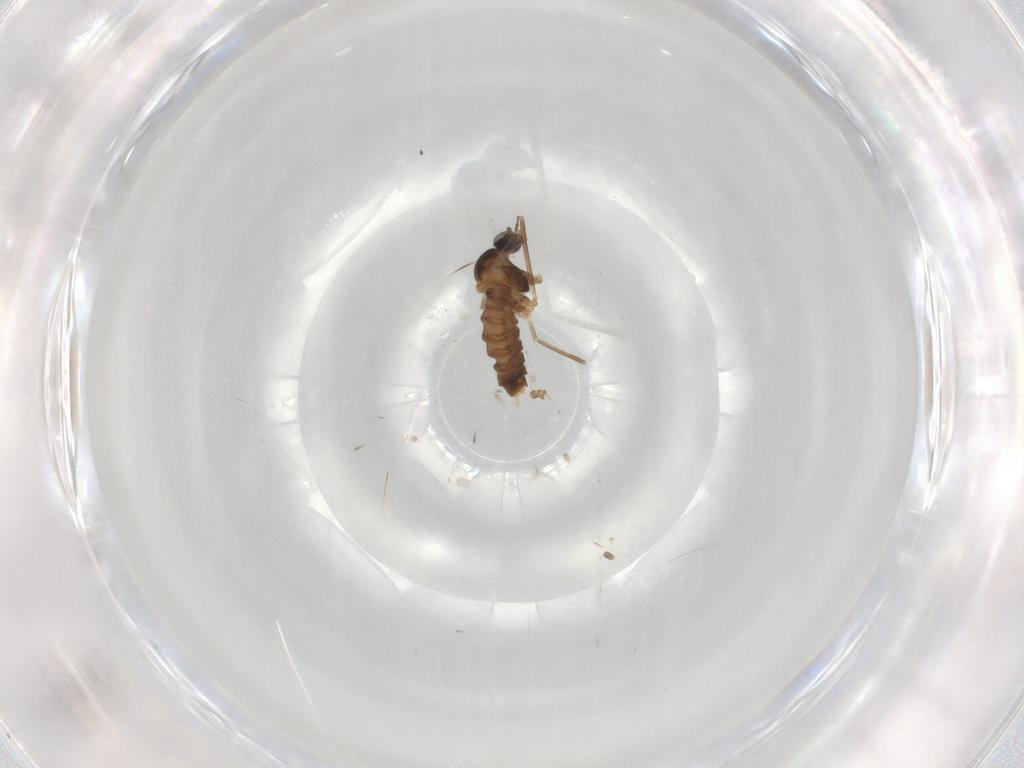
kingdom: Animalia
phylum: Arthropoda
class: Insecta
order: Diptera
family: Cecidomyiidae
